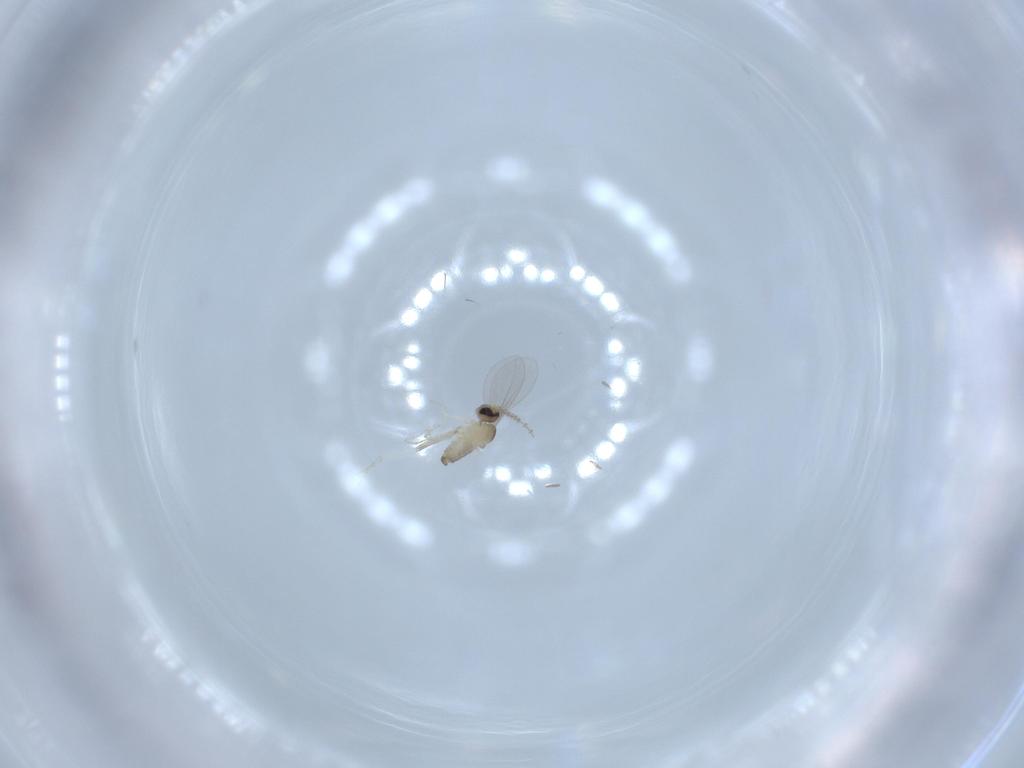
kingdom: Animalia
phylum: Arthropoda
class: Insecta
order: Diptera
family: Cecidomyiidae
